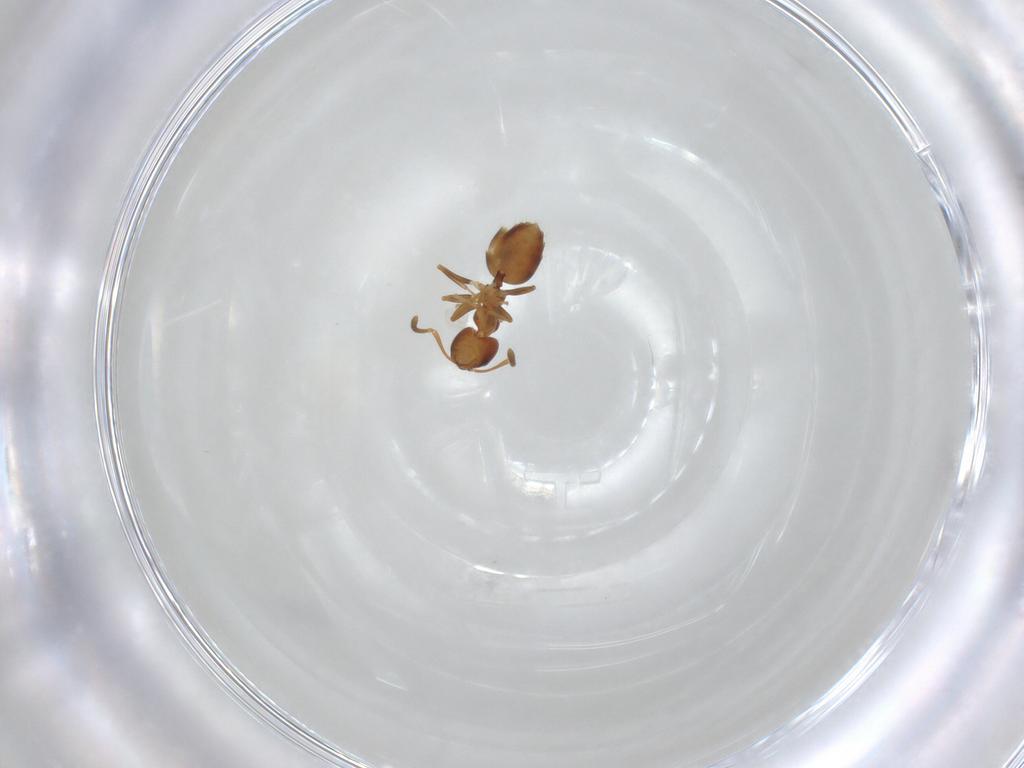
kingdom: Animalia
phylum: Arthropoda
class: Insecta
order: Hymenoptera
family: Formicidae
